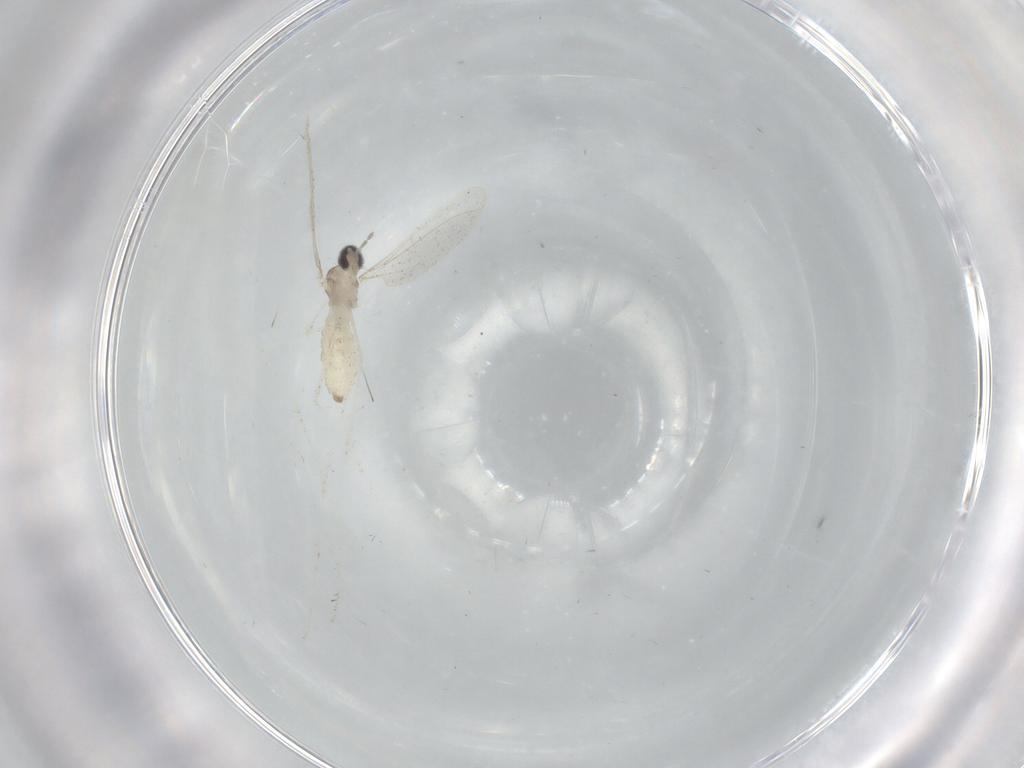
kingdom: Animalia
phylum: Arthropoda
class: Insecta
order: Diptera
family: Cecidomyiidae
